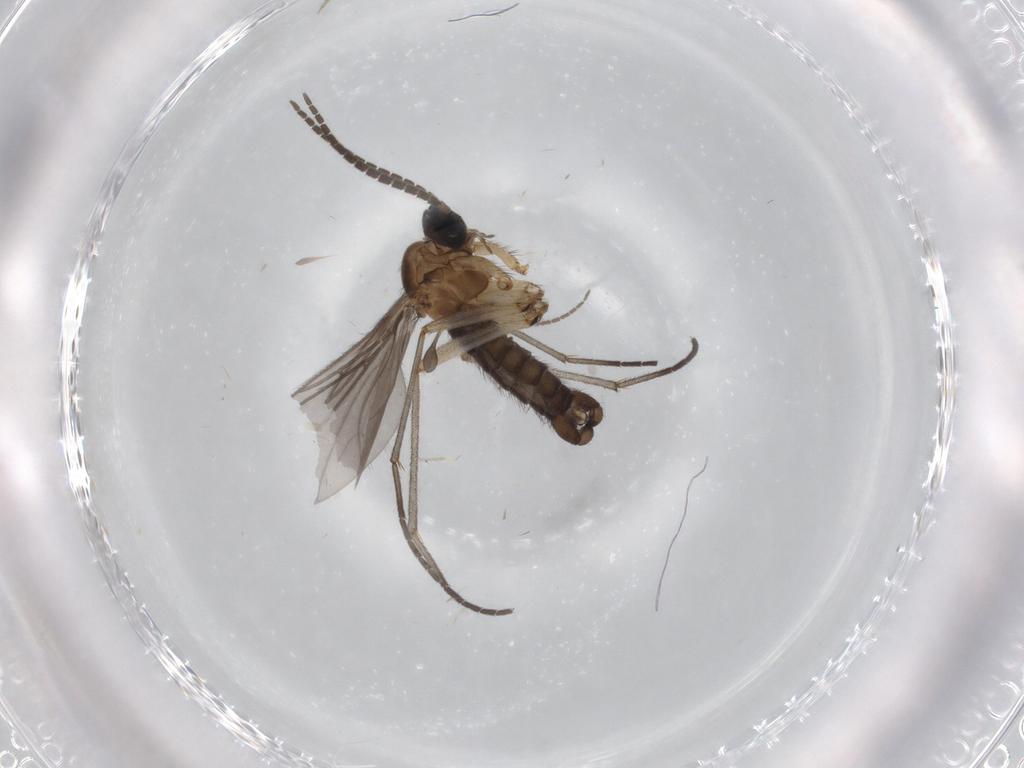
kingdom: Animalia
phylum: Arthropoda
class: Insecta
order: Diptera
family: Sciaridae
